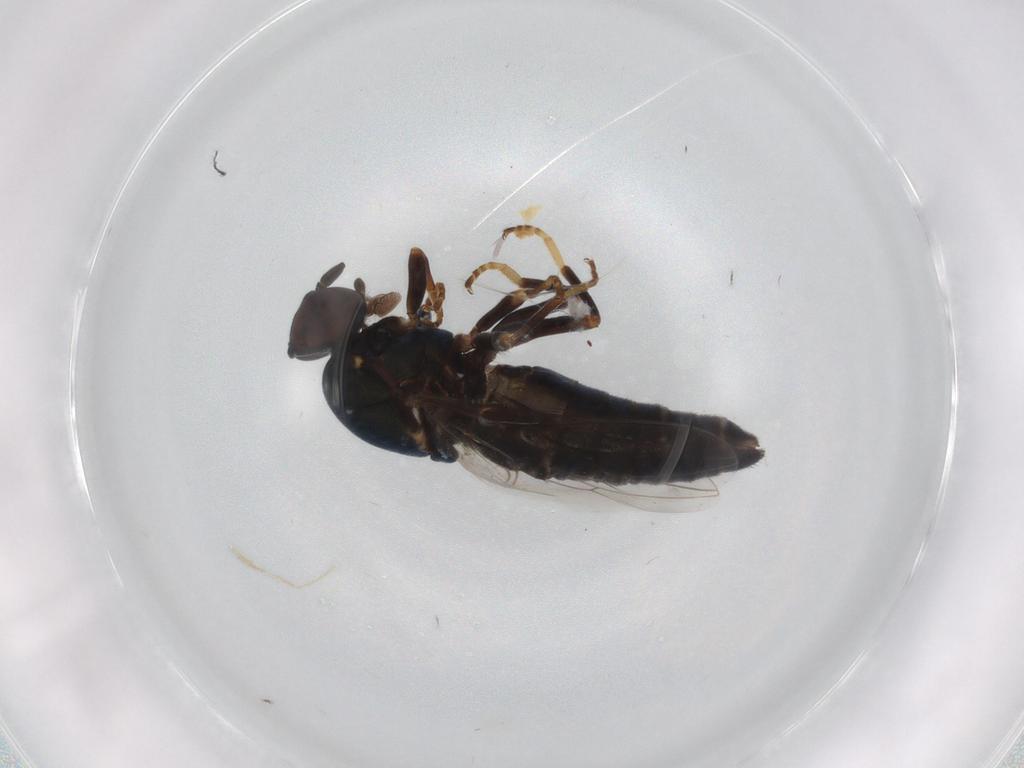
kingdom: Animalia
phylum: Arthropoda
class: Insecta
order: Diptera
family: Scenopinidae
